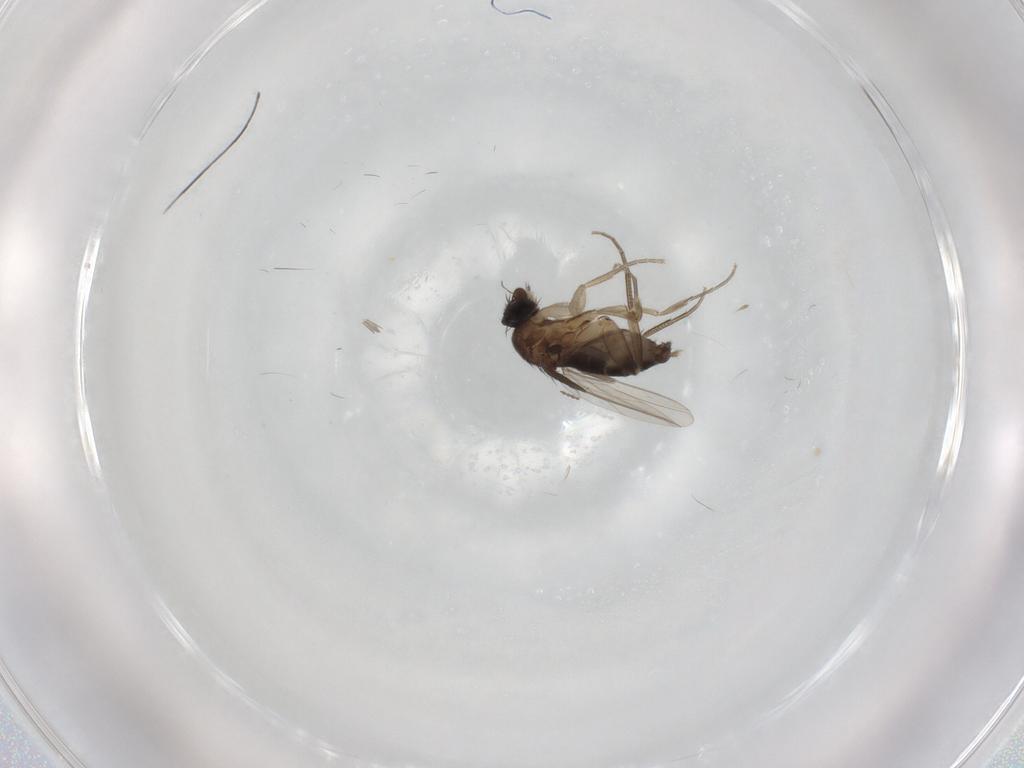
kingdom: Animalia
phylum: Arthropoda
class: Insecta
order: Diptera
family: Phoridae
